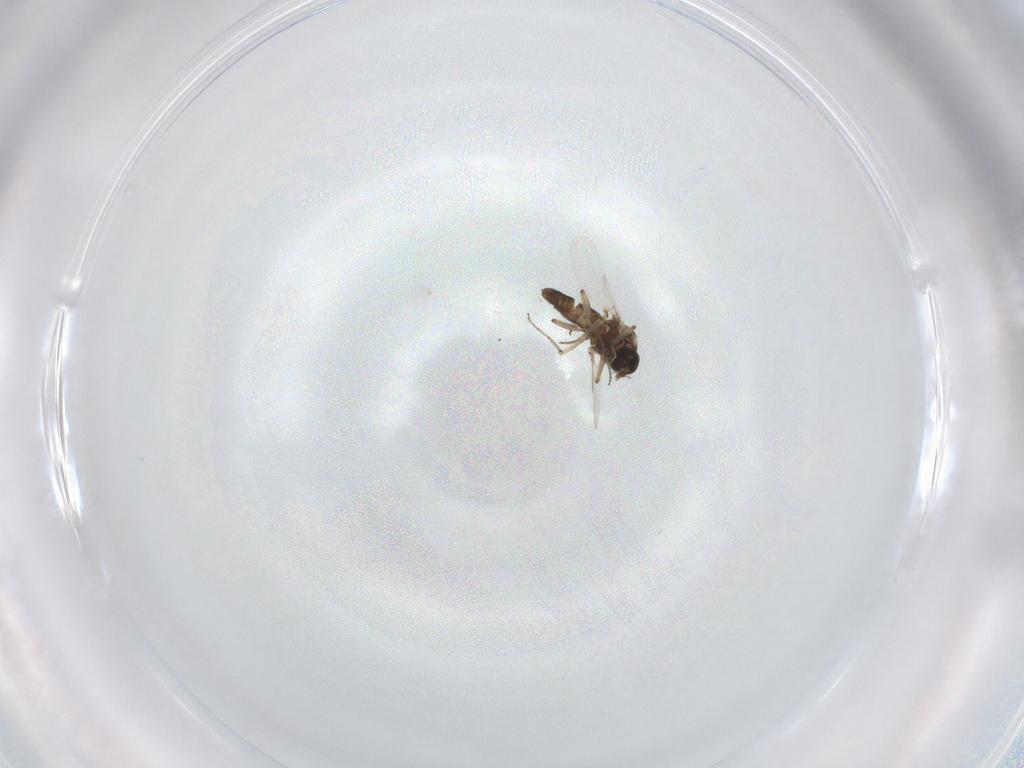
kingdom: Animalia
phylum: Arthropoda
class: Insecta
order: Diptera
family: Ceratopogonidae
